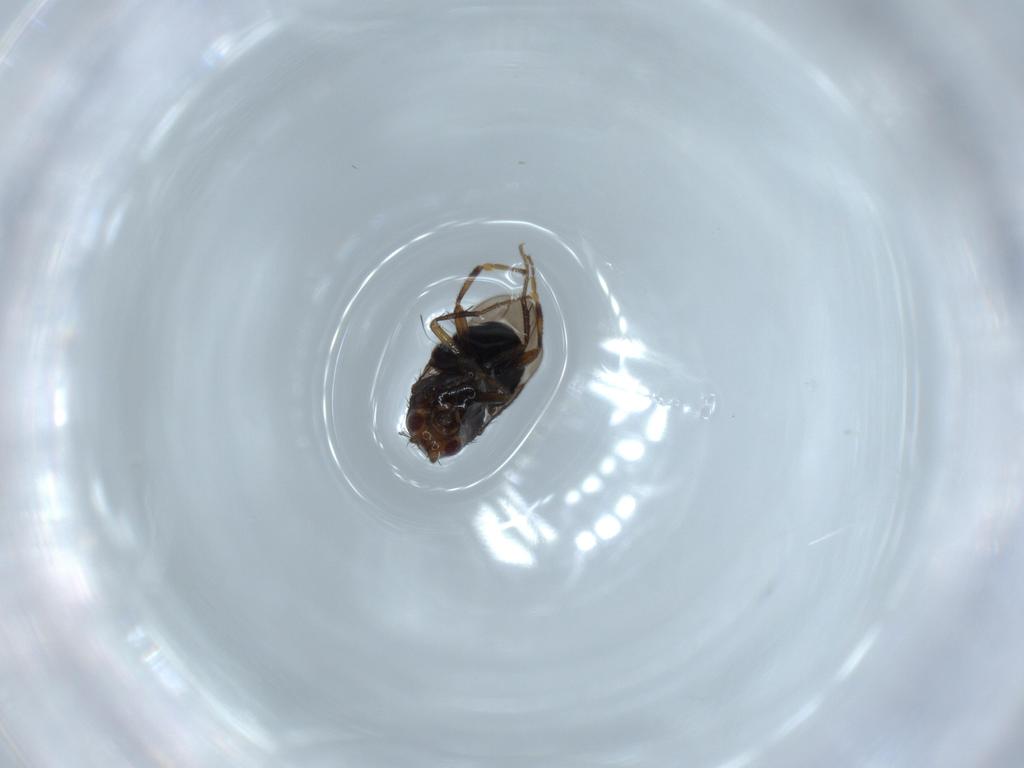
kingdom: Animalia
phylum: Arthropoda
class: Insecta
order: Diptera
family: Sphaeroceridae
